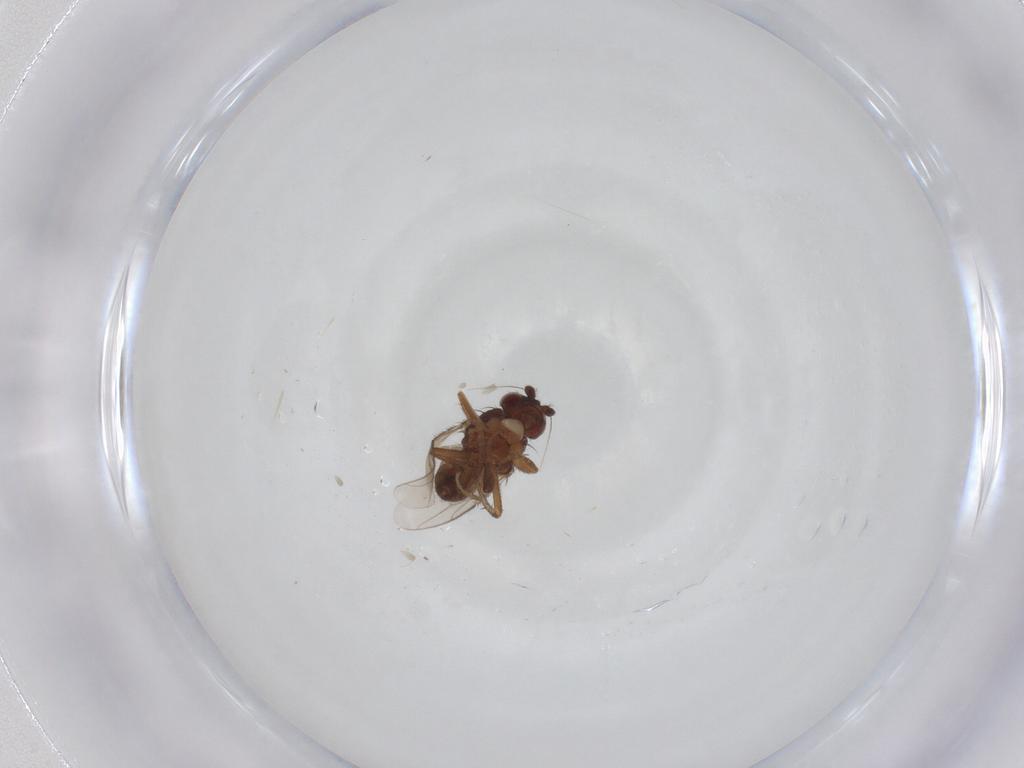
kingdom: Animalia
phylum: Arthropoda
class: Insecta
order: Diptera
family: Sphaeroceridae
